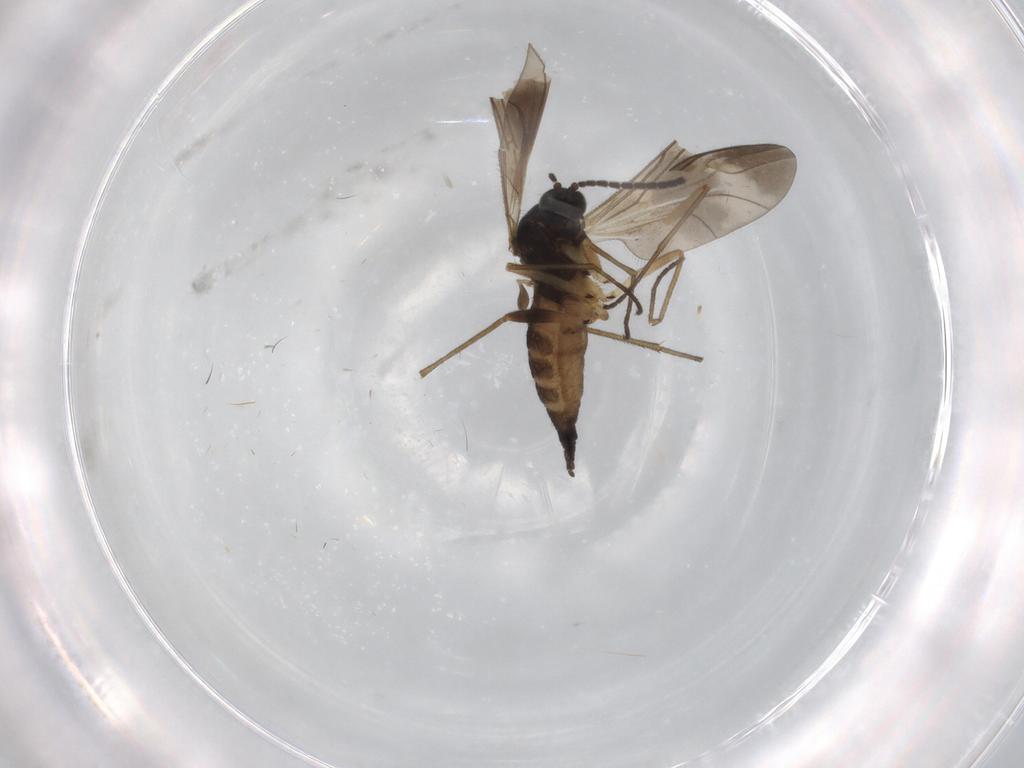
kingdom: Animalia
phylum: Arthropoda
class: Insecta
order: Diptera
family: Sciaridae
